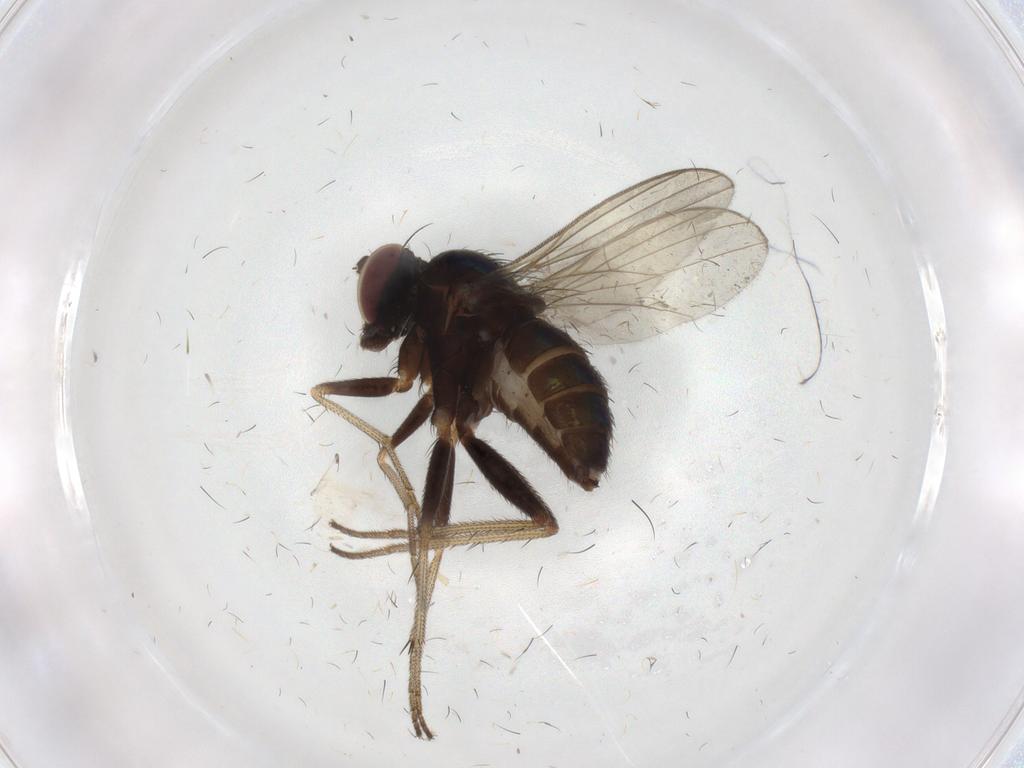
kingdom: Animalia
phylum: Arthropoda
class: Insecta
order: Diptera
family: Dolichopodidae
